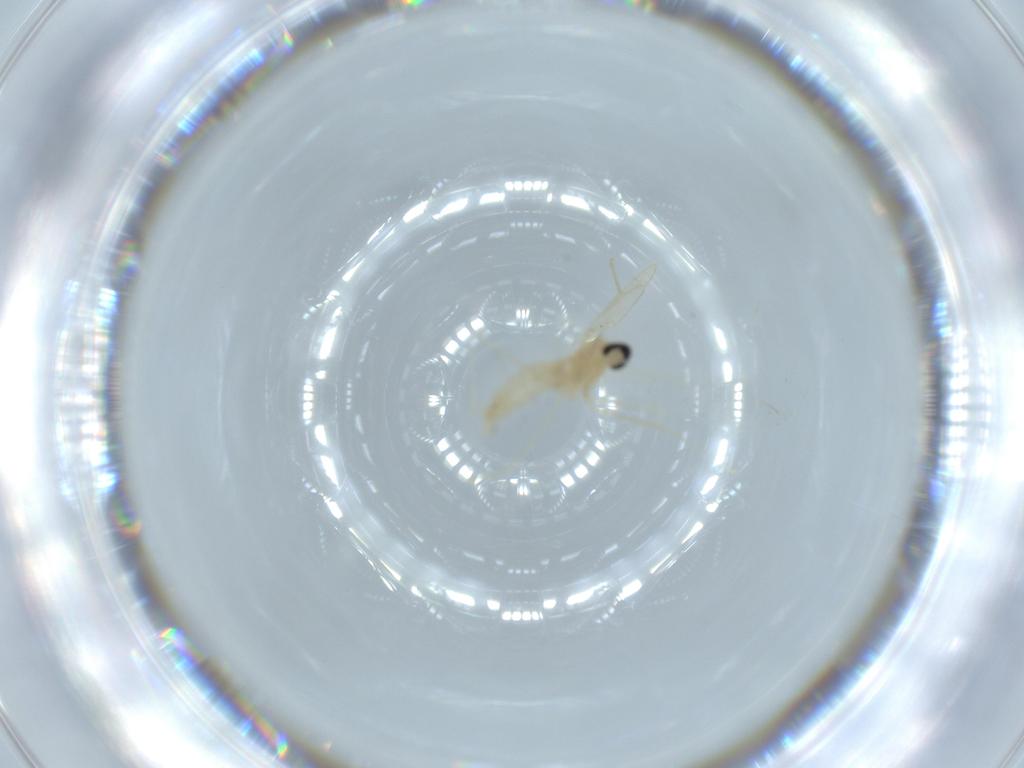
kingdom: Animalia
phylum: Arthropoda
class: Insecta
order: Diptera
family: Cecidomyiidae
